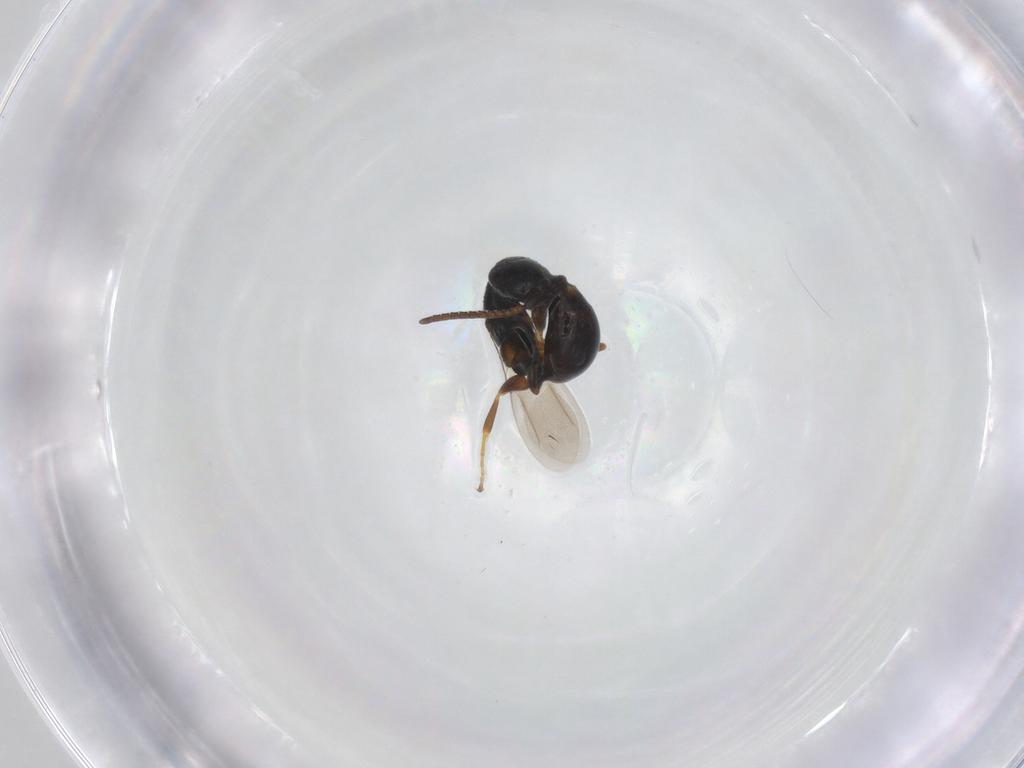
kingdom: Animalia
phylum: Arthropoda
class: Insecta
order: Hymenoptera
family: Bethylidae
